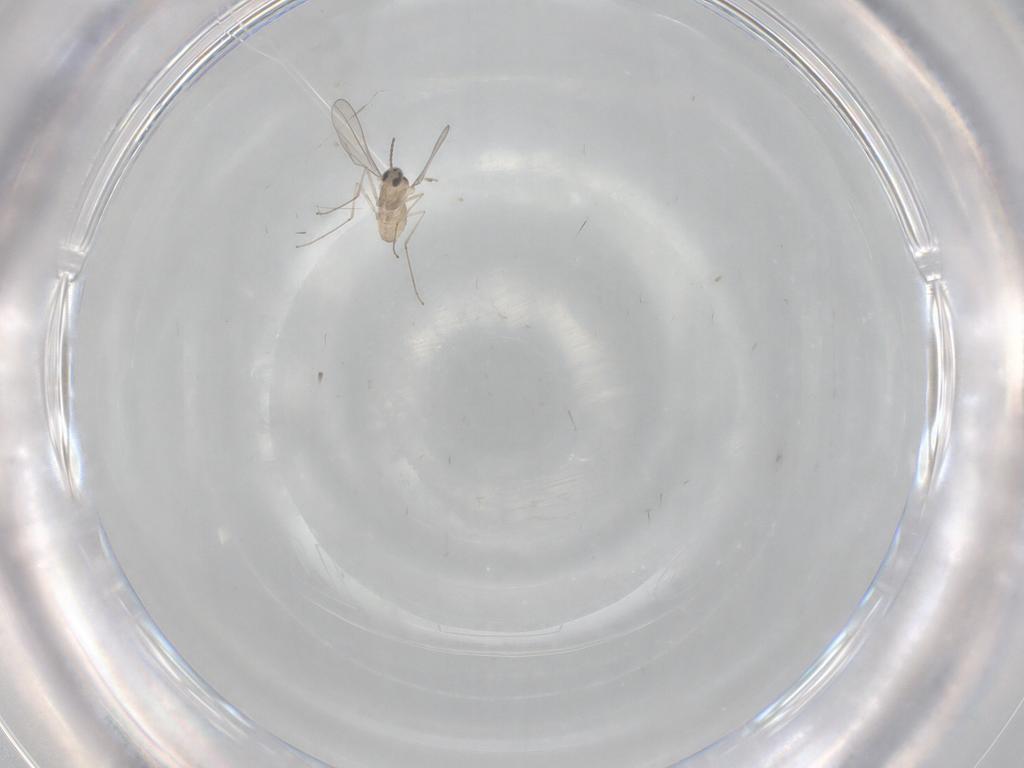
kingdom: Animalia
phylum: Arthropoda
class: Insecta
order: Diptera
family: Cecidomyiidae
